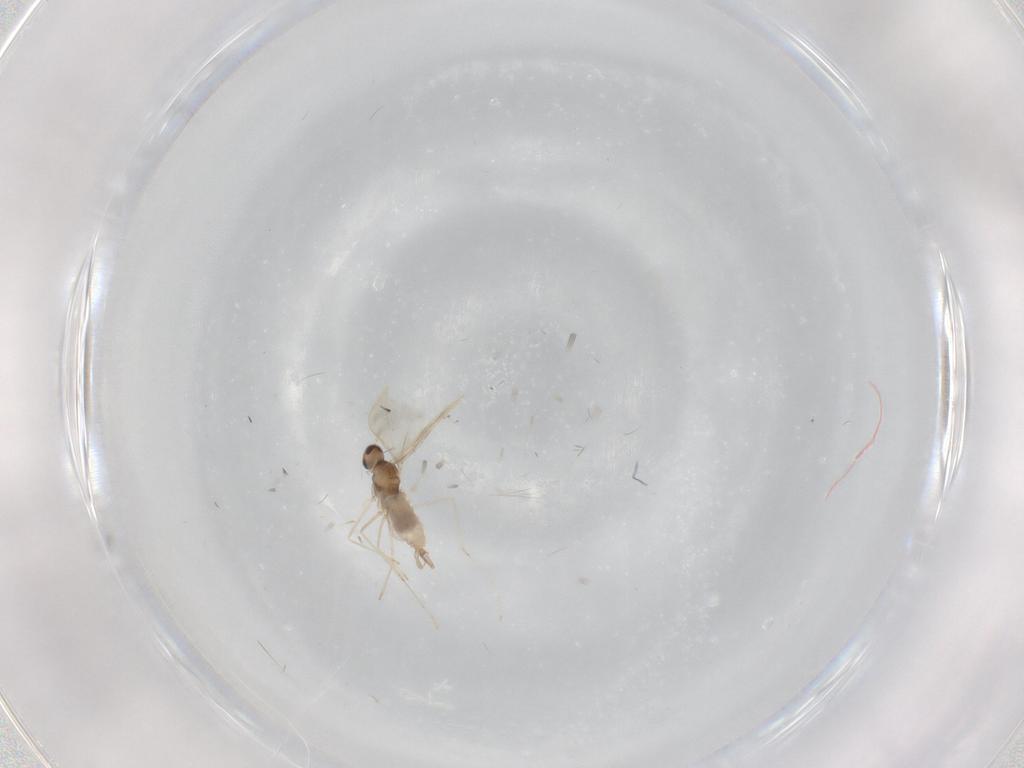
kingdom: Animalia
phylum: Arthropoda
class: Insecta
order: Diptera
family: Cecidomyiidae
